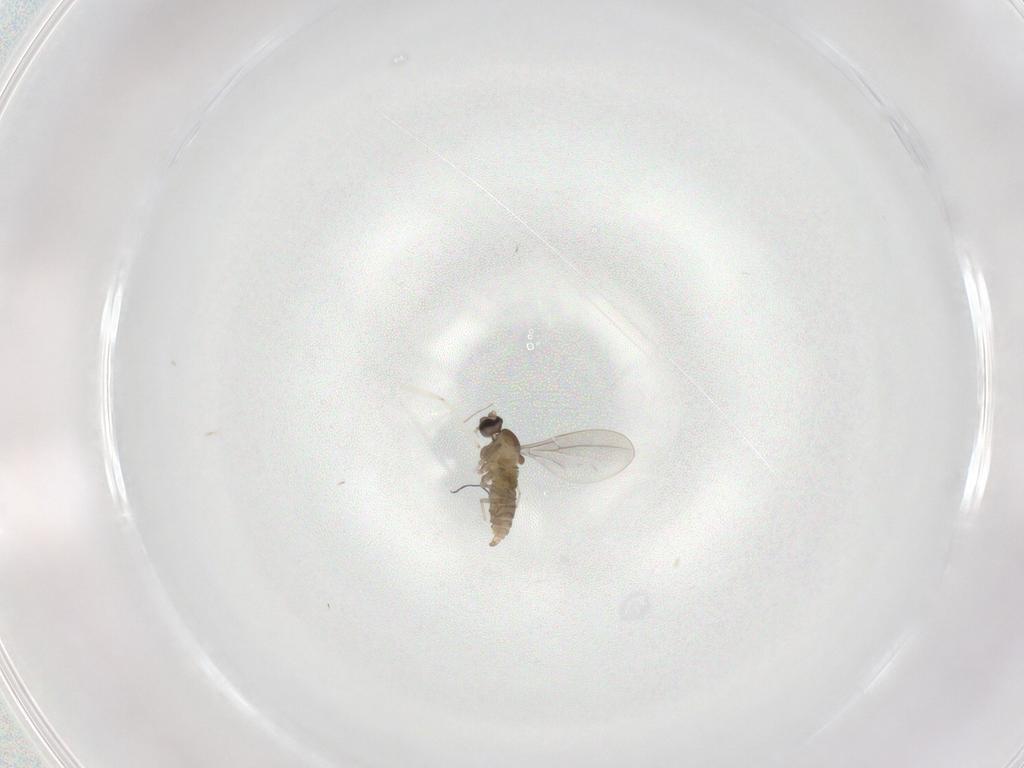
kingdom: Animalia
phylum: Arthropoda
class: Insecta
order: Diptera
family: Cecidomyiidae
